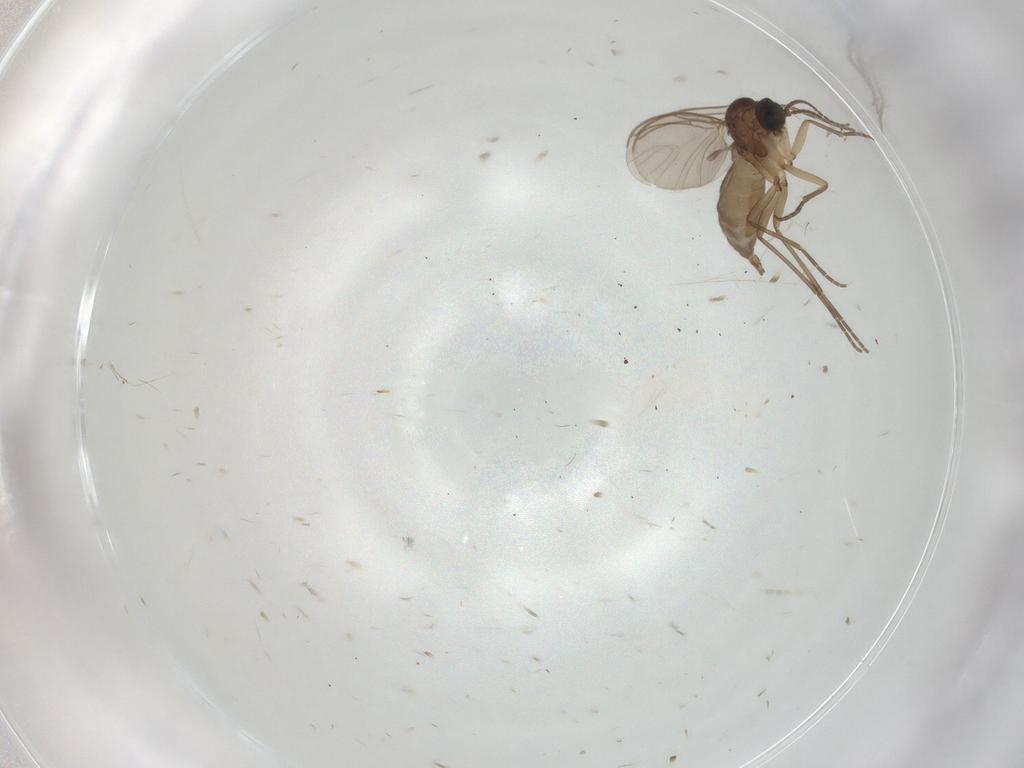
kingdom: Animalia
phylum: Arthropoda
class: Insecta
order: Diptera
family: Sciaridae
